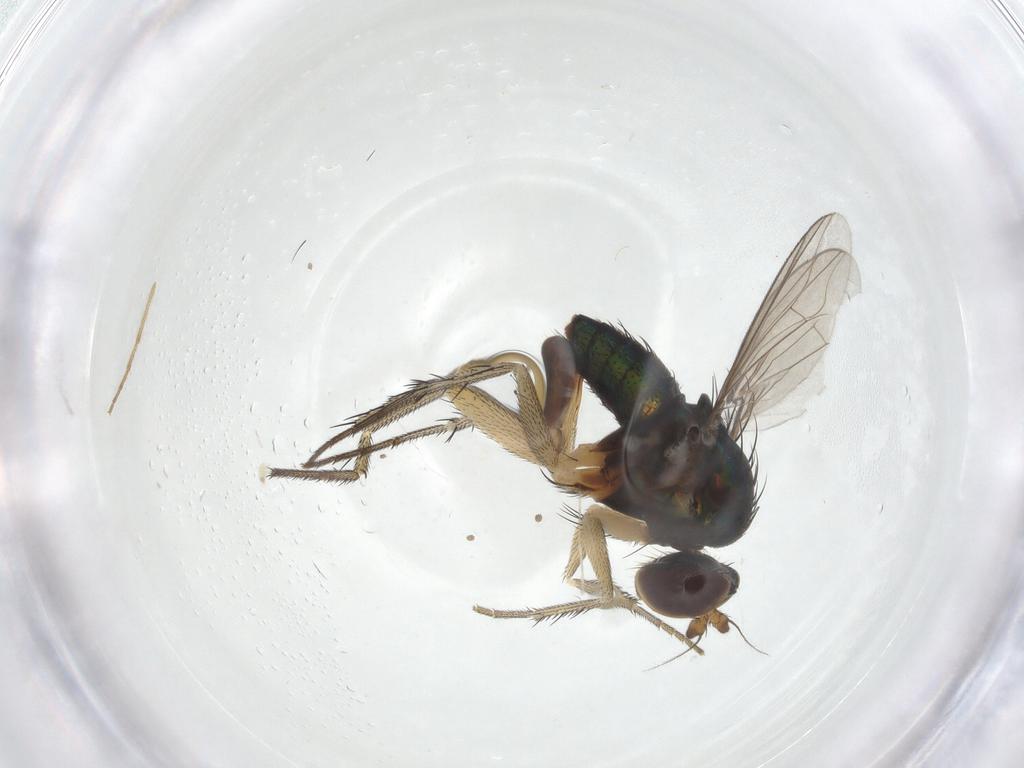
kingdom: Animalia
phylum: Arthropoda
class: Insecta
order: Diptera
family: Dolichopodidae
